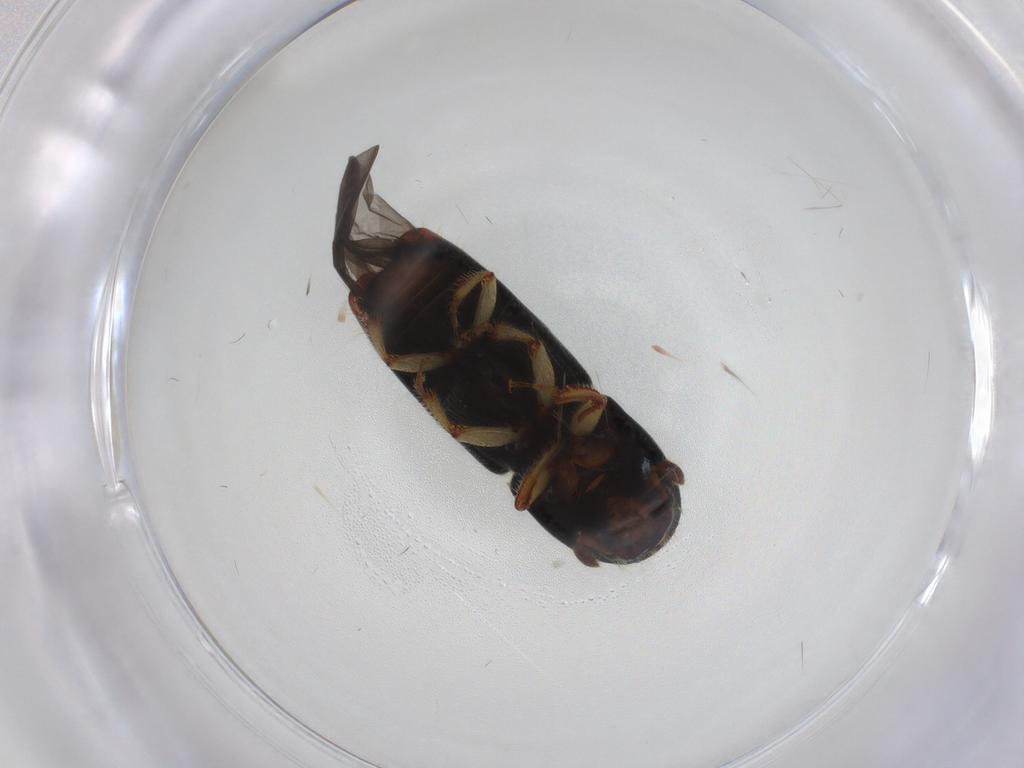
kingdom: Animalia
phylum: Arthropoda
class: Insecta
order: Coleoptera
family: Curculionidae
